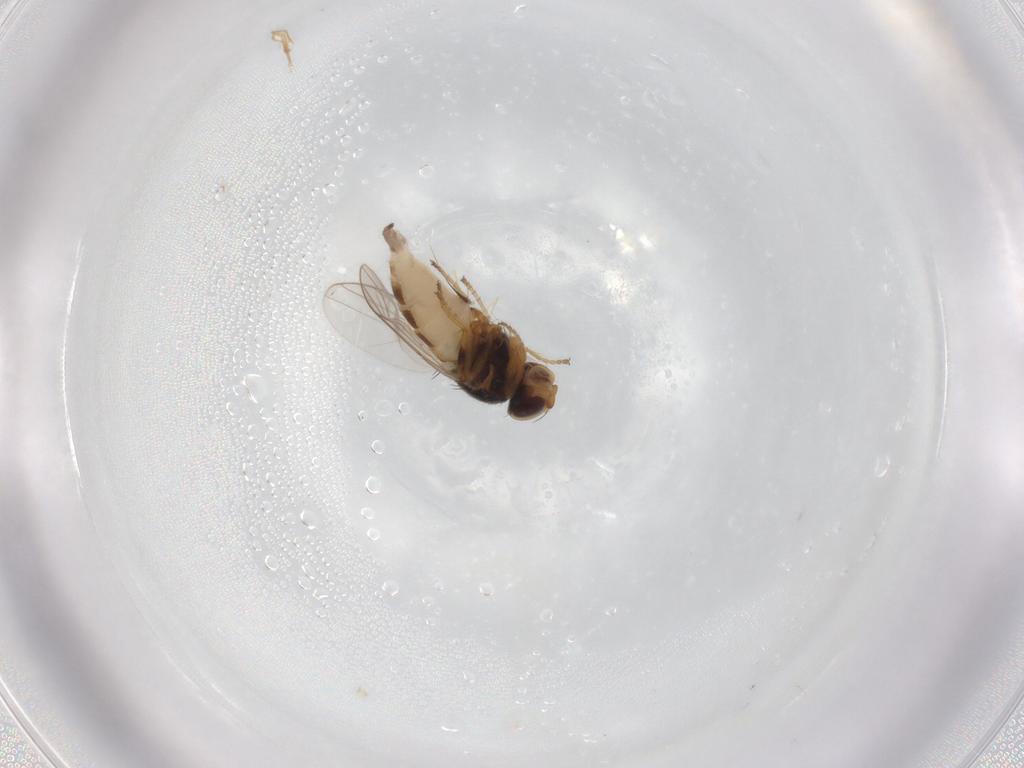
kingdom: Animalia
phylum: Arthropoda
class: Insecta
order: Diptera
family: Chloropidae
